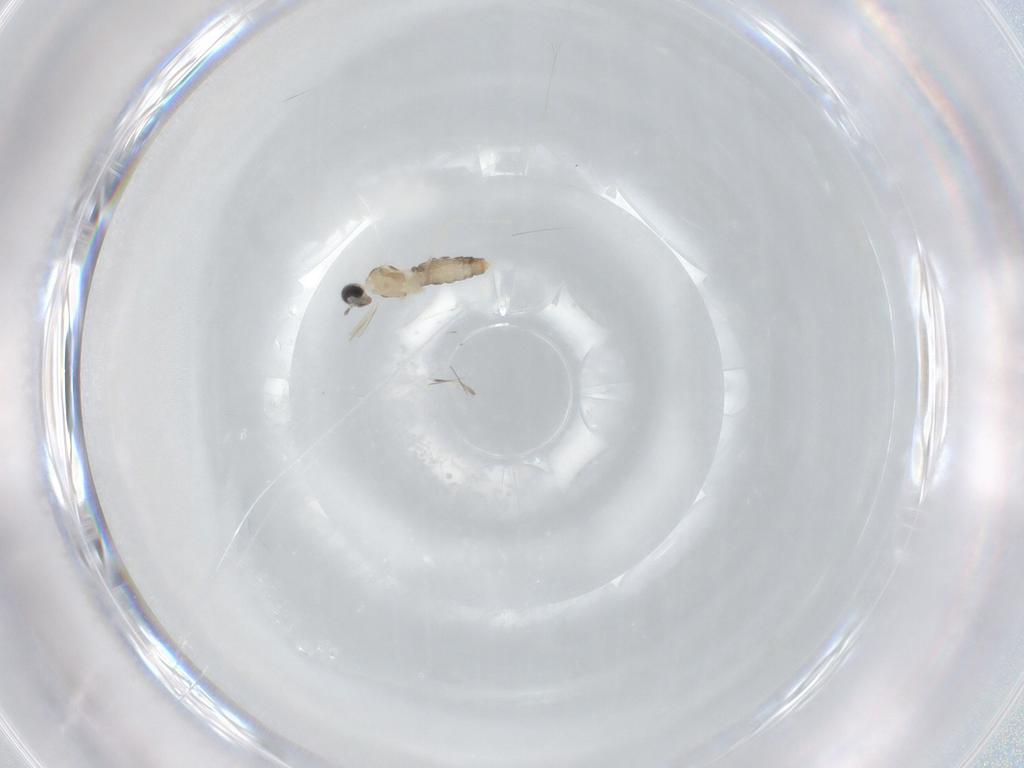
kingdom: Animalia
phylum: Arthropoda
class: Insecta
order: Diptera
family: Cecidomyiidae
